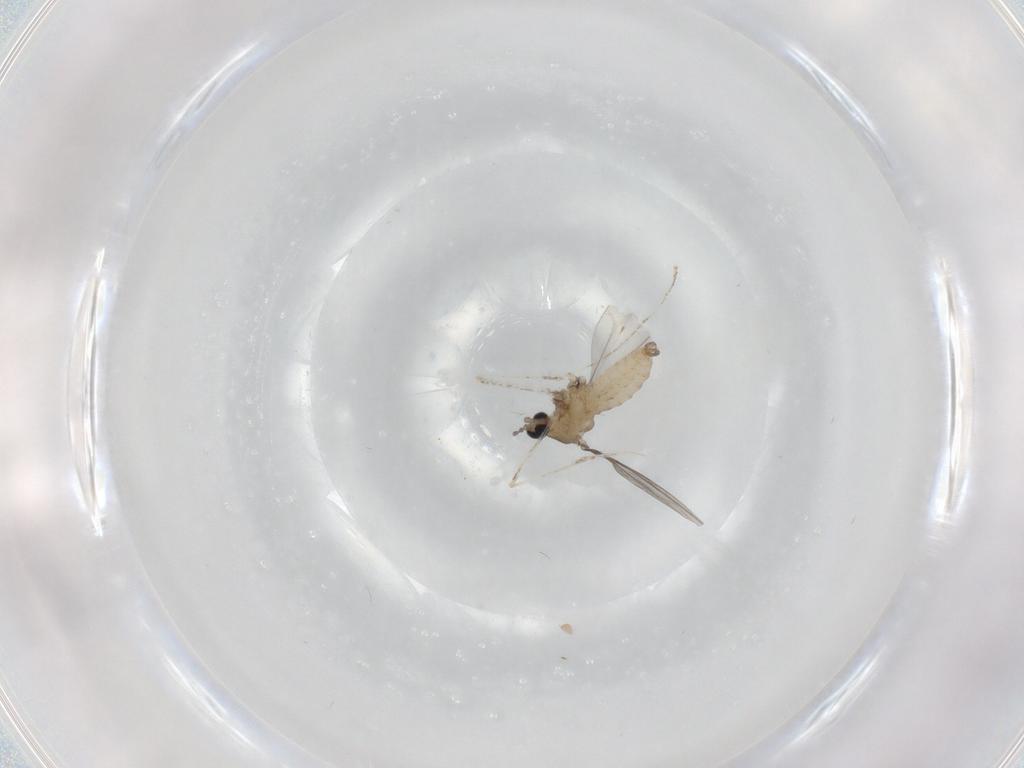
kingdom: Animalia
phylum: Arthropoda
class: Insecta
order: Diptera
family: Cecidomyiidae
